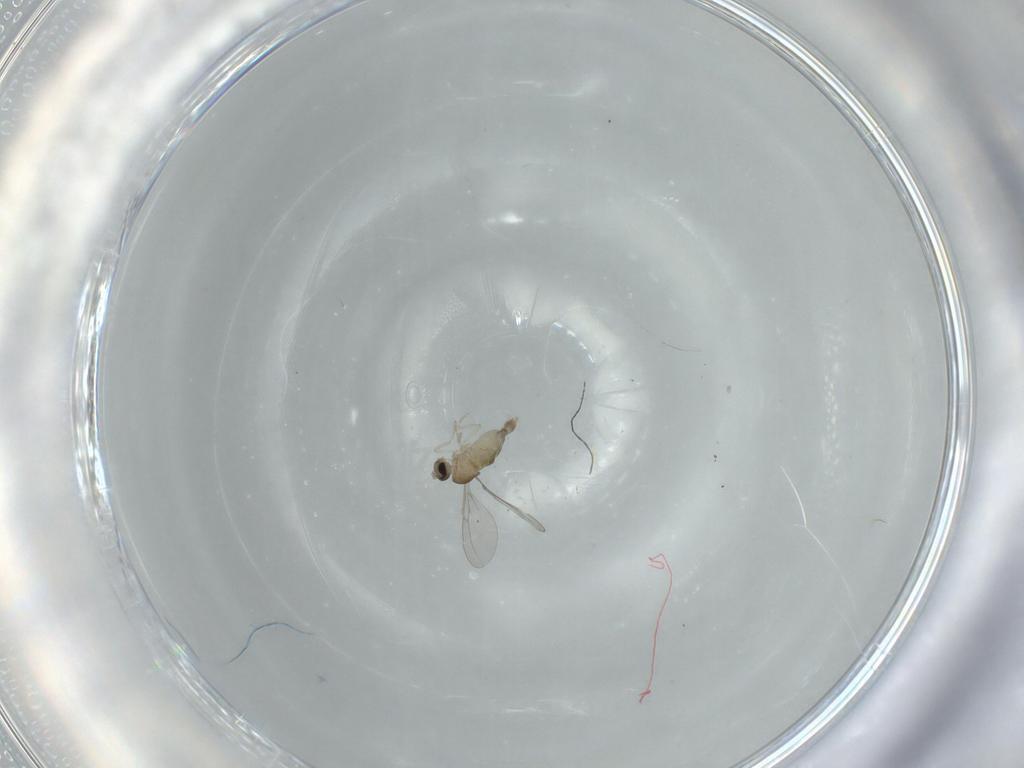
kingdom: Animalia
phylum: Arthropoda
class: Insecta
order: Diptera
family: Cecidomyiidae
